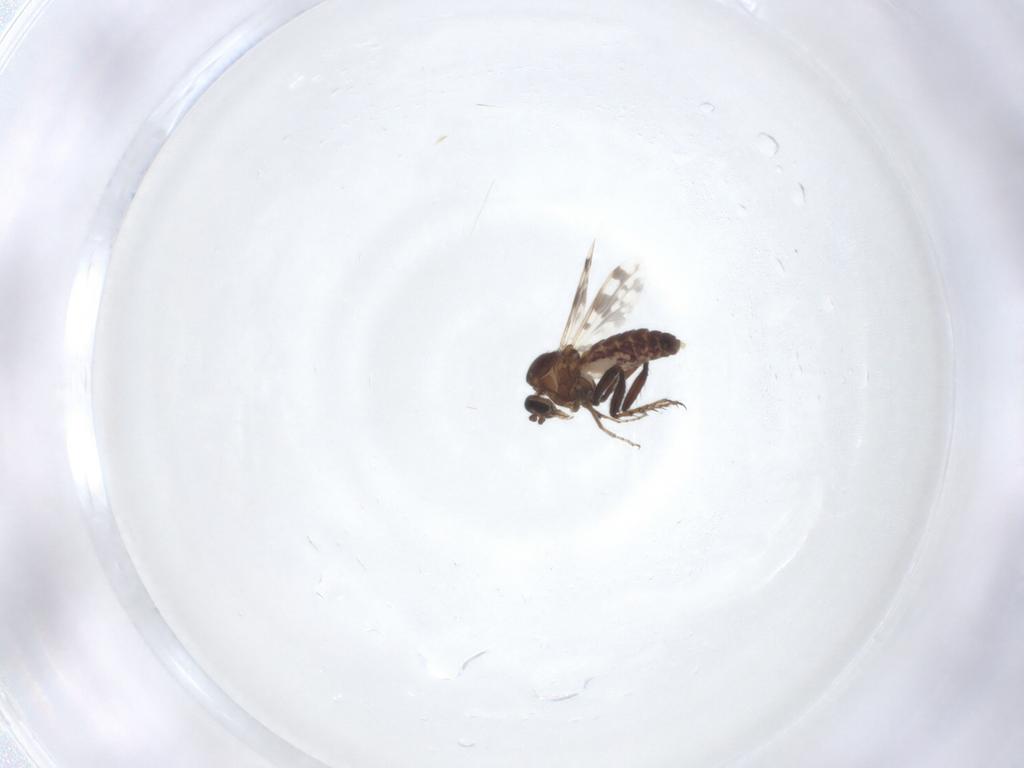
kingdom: Animalia
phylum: Arthropoda
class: Insecta
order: Diptera
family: Ceratopogonidae
